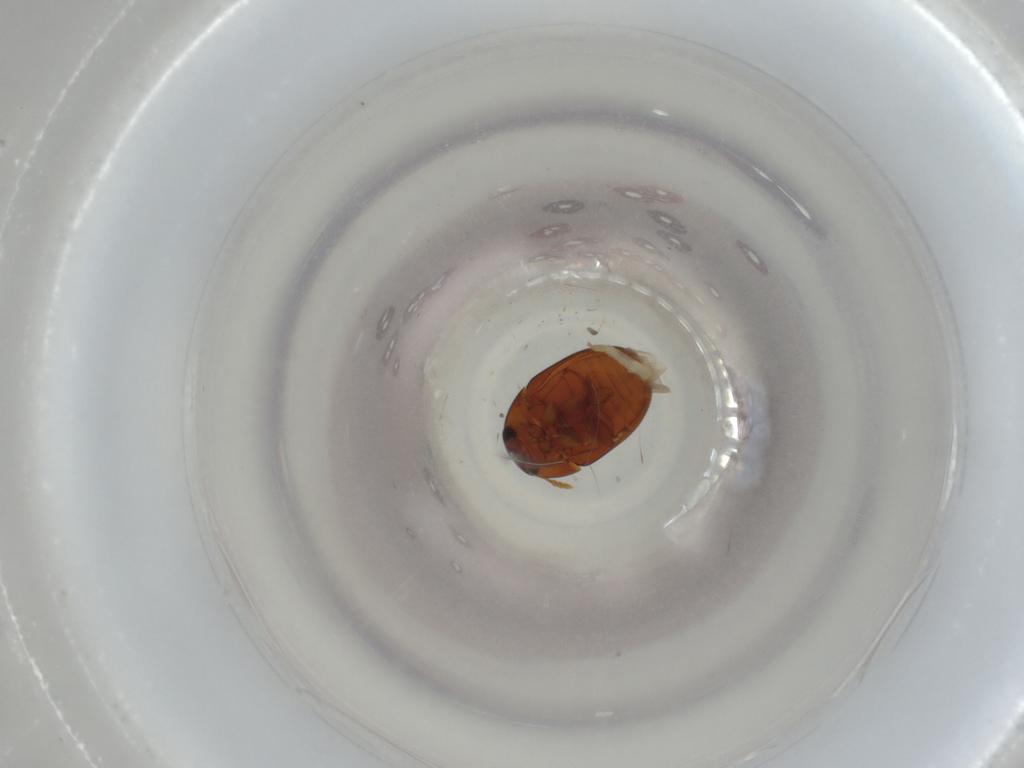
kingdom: Animalia
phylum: Arthropoda
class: Insecta
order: Coleoptera
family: Phalacridae
